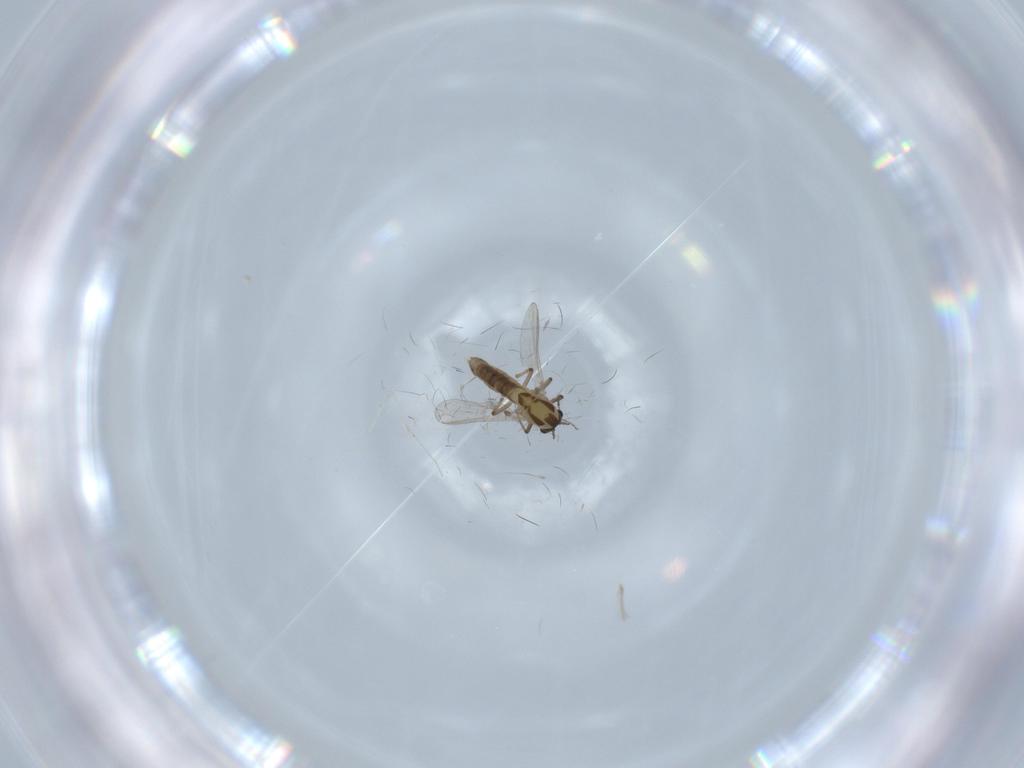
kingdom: Animalia
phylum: Arthropoda
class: Insecta
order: Diptera
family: Chironomidae
